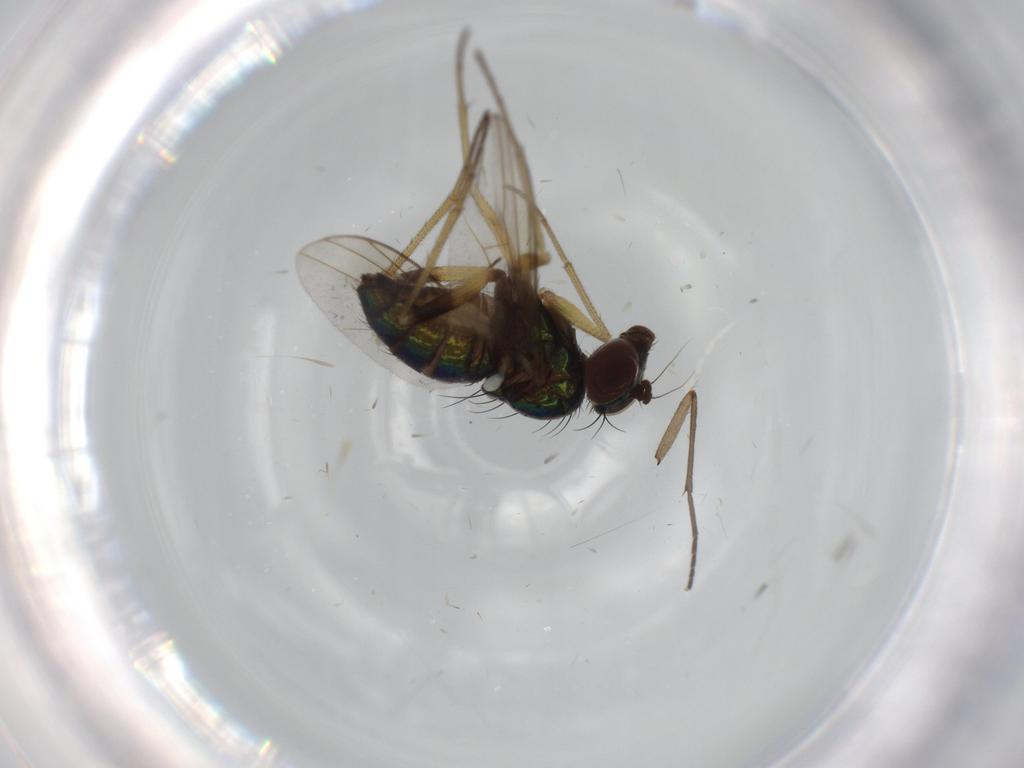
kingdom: Animalia
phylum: Arthropoda
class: Insecta
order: Diptera
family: Dolichopodidae
